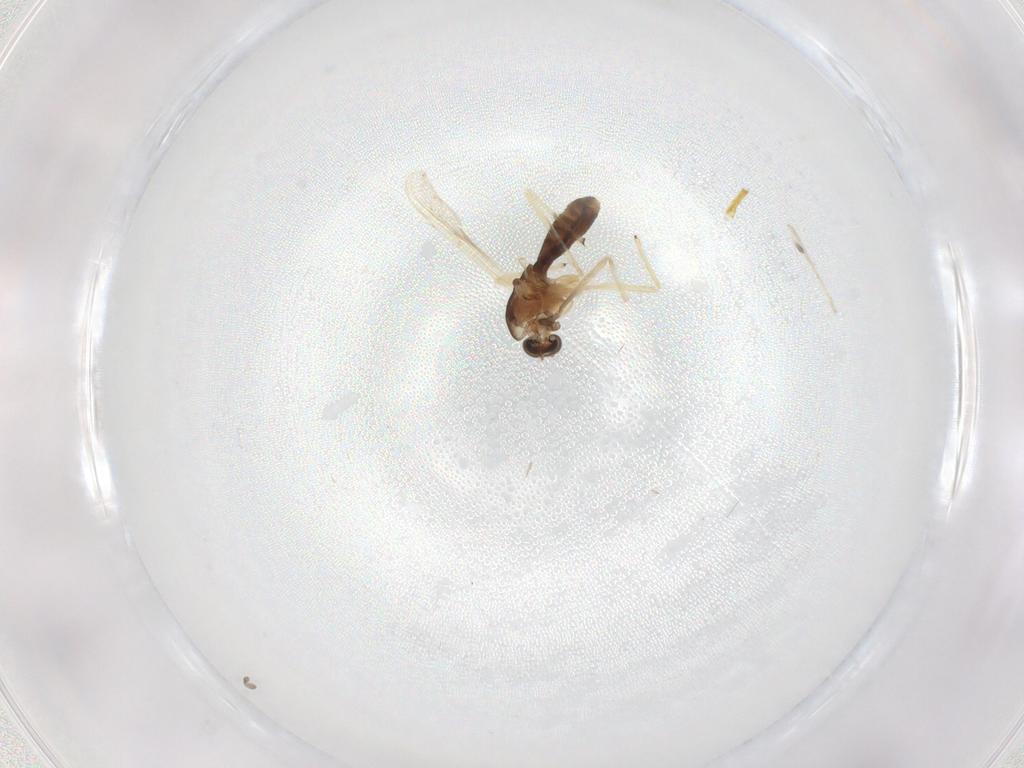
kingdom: Animalia
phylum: Arthropoda
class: Insecta
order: Diptera
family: Chironomidae
